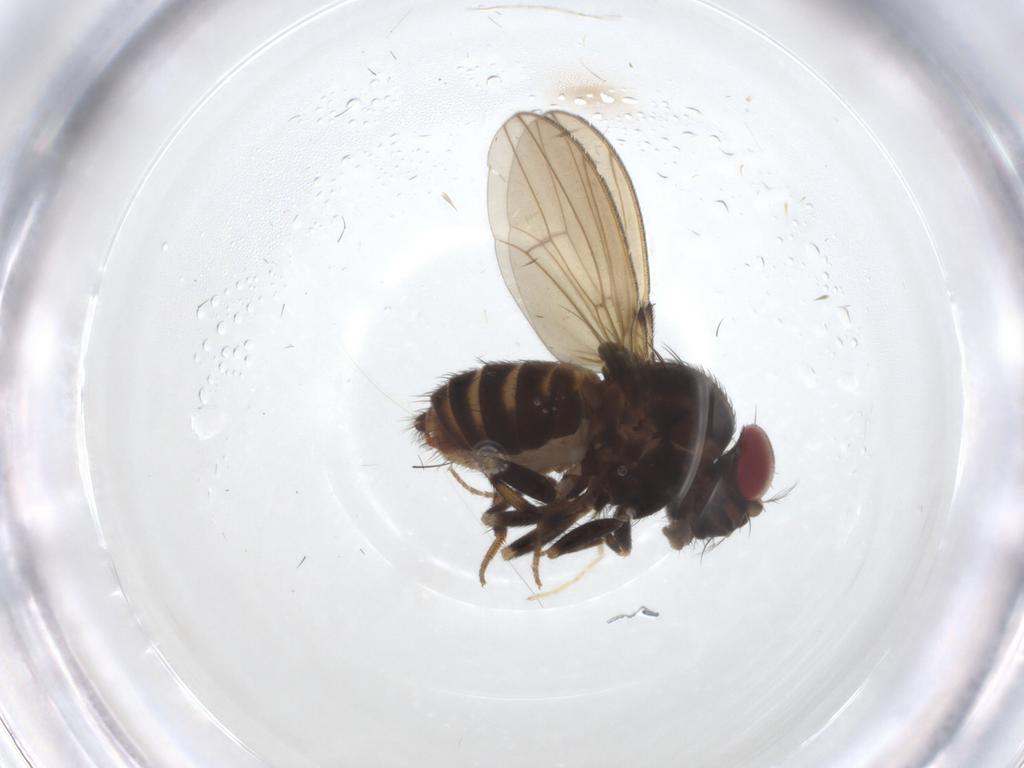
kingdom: Animalia
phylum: Arthropoda
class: Insecta
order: Diptera
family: Drosophilidae
